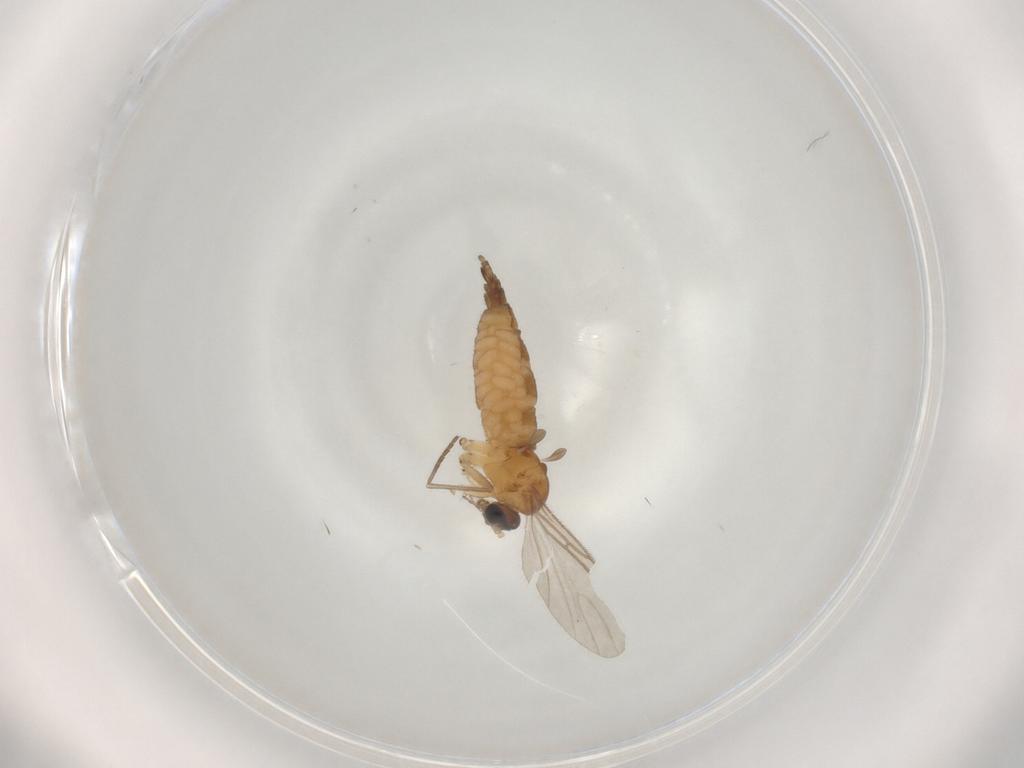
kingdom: Animalia
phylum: Arthropoda
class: Insecta
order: Diptera
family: Sciaridae
